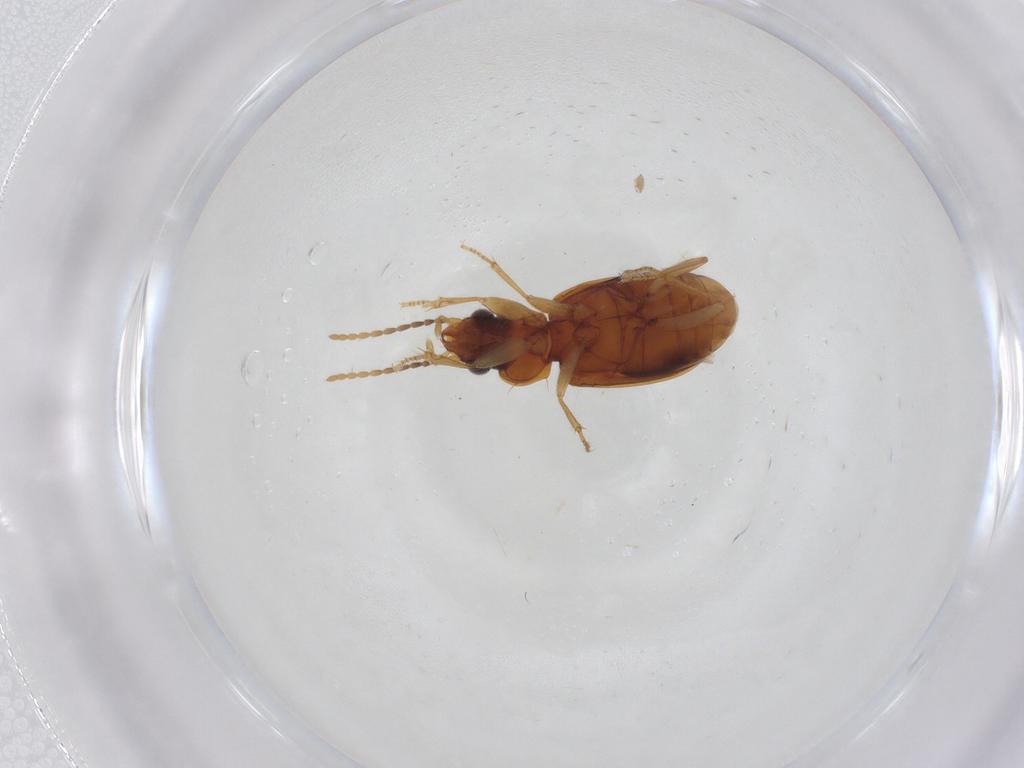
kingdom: Animalia
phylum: Arthropoda
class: Insecta
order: Coleoptera
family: Carabidae
